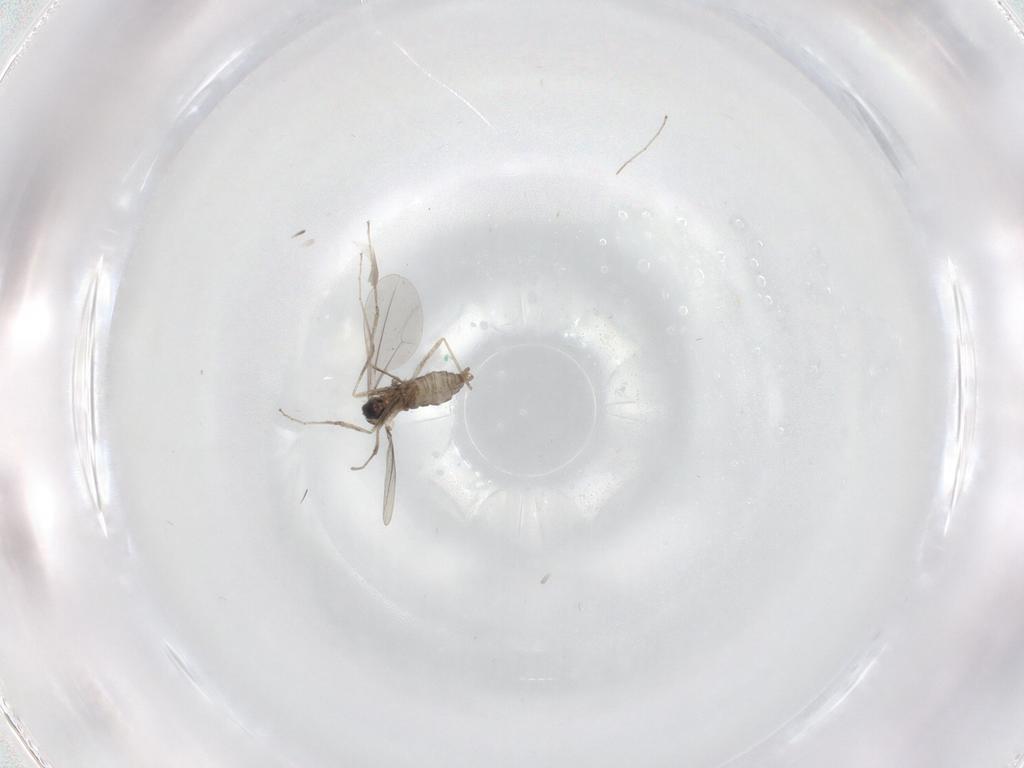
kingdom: Animalia
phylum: Arthropoda
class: Insecta
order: Diptera
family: Cecidomyiidae
